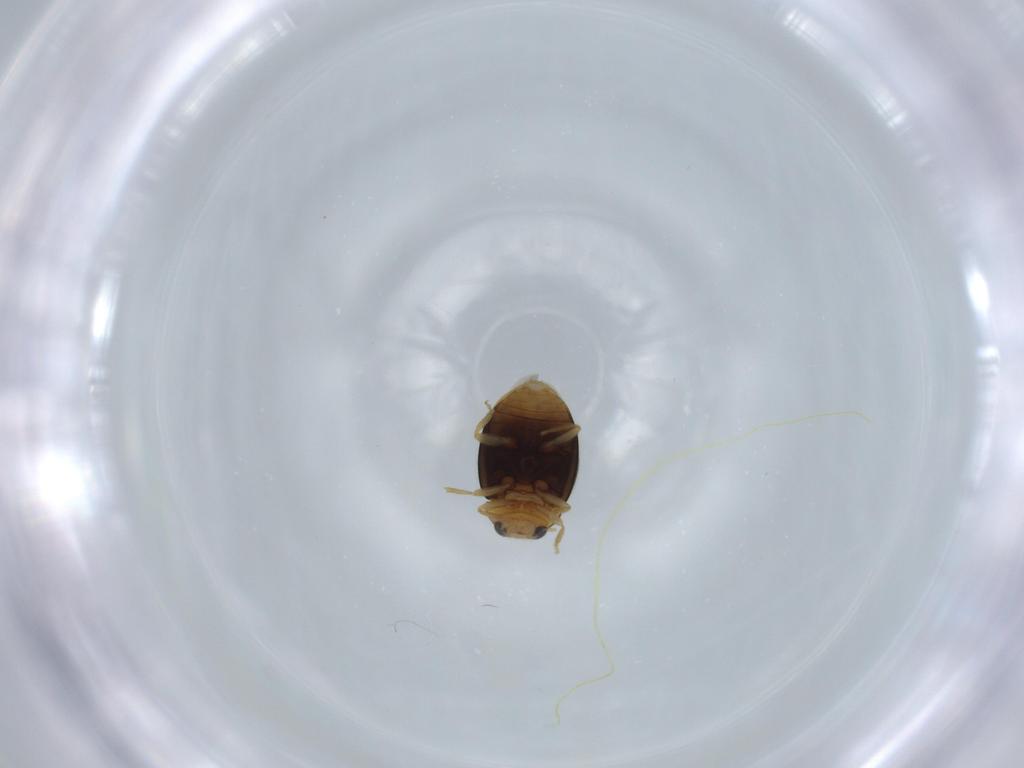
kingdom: Animalia
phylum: Arthropoda
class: Insecta
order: Coleoptera
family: Coccinellidae
